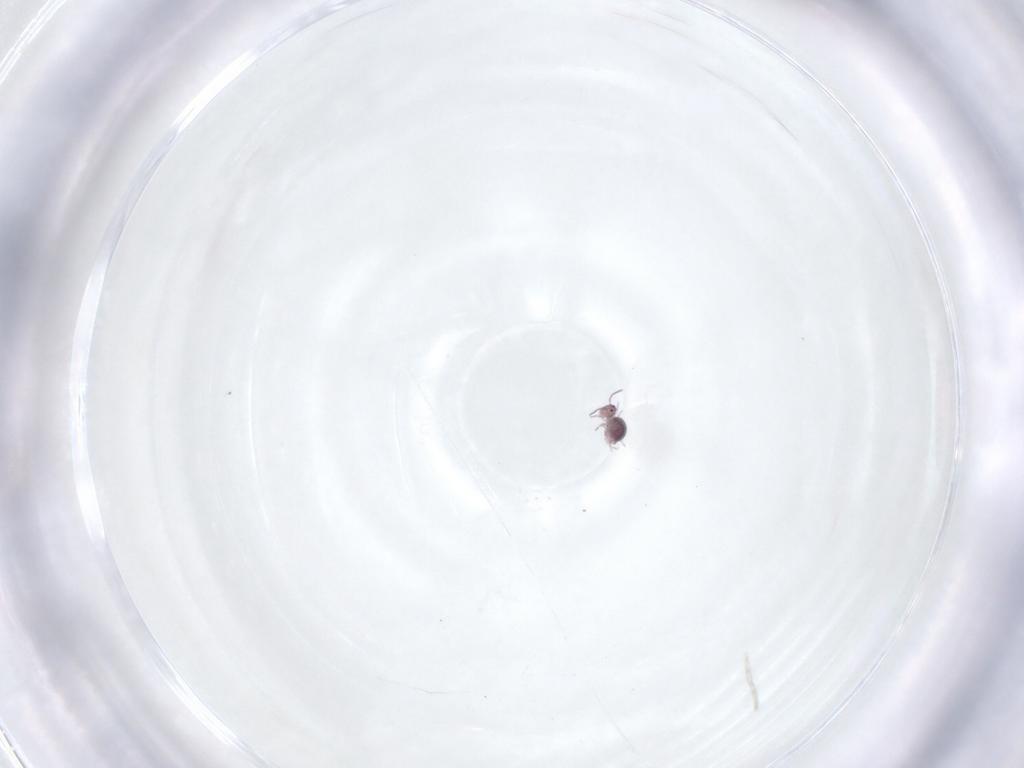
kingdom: Animalia
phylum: Arthropoda
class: Collembola
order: Symphypleona
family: Sminthurididae
